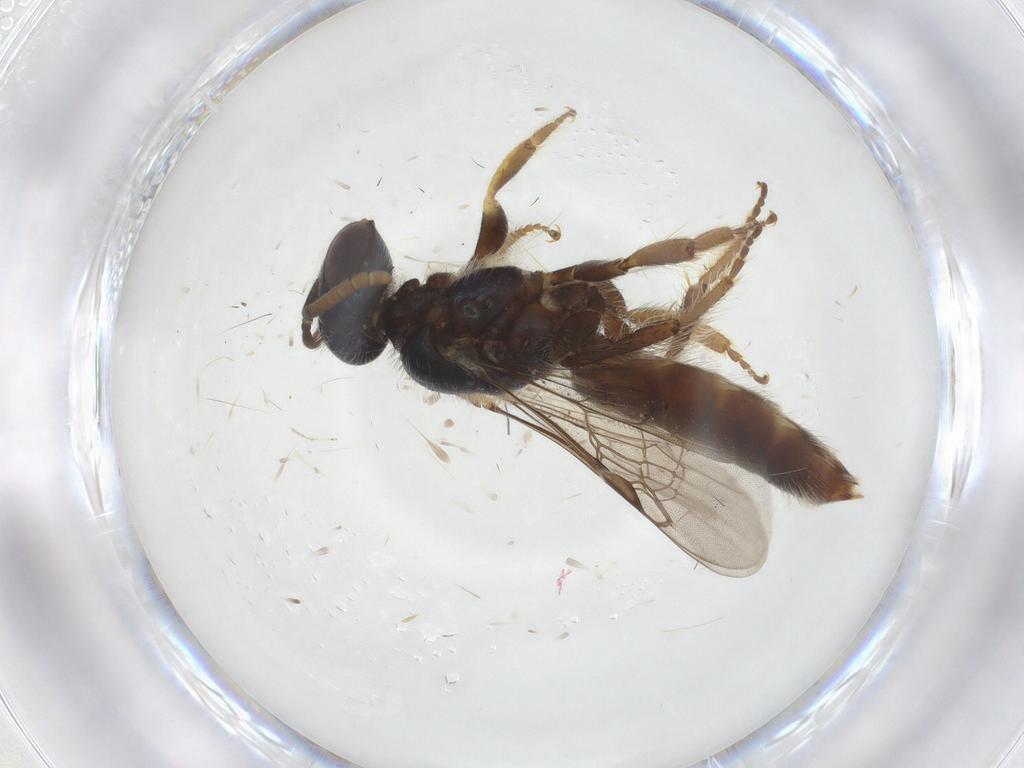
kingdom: Animalia
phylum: Arthropoda
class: Insecta
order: Hymenoptera
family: Andrenidae
